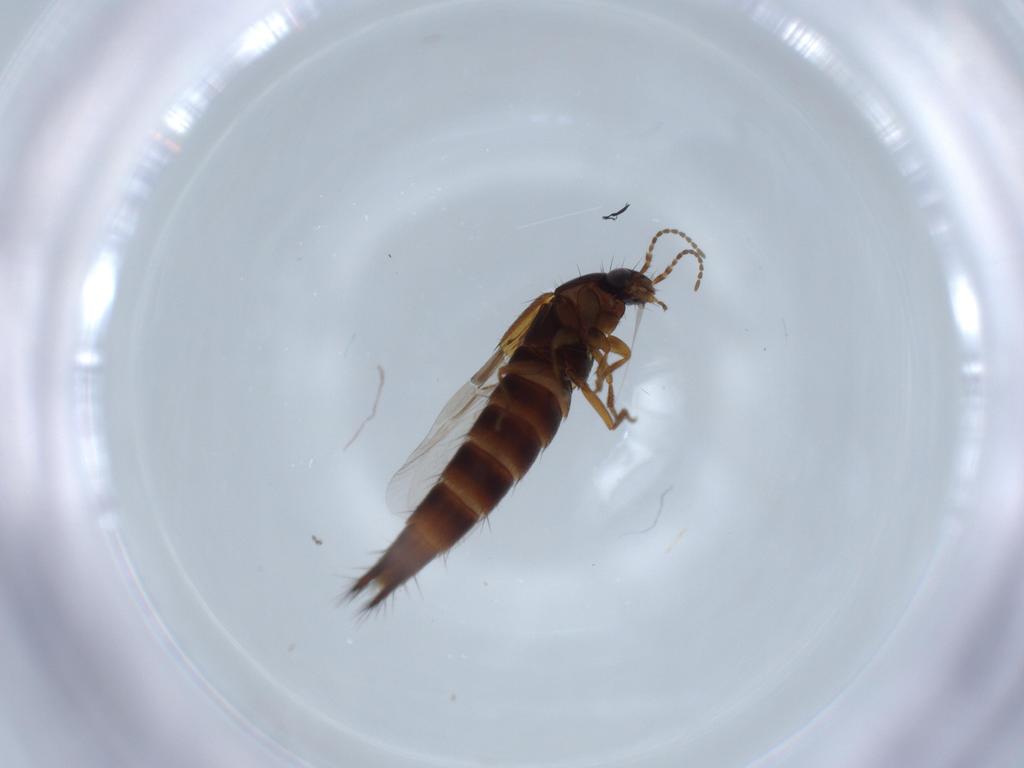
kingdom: Animalia
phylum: Arthropoda
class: Insecta
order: Coleoptera
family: Staphylinidae
